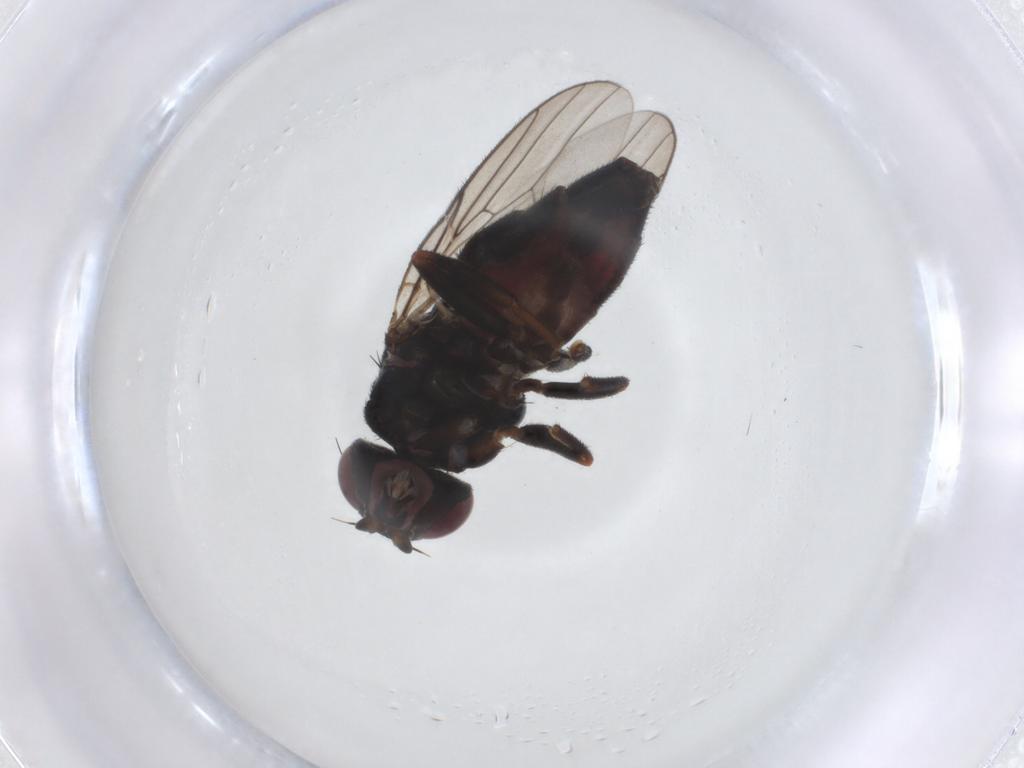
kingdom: Animalia
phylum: Arthropoda
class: Insecta
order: Diptera
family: Chloropidae
